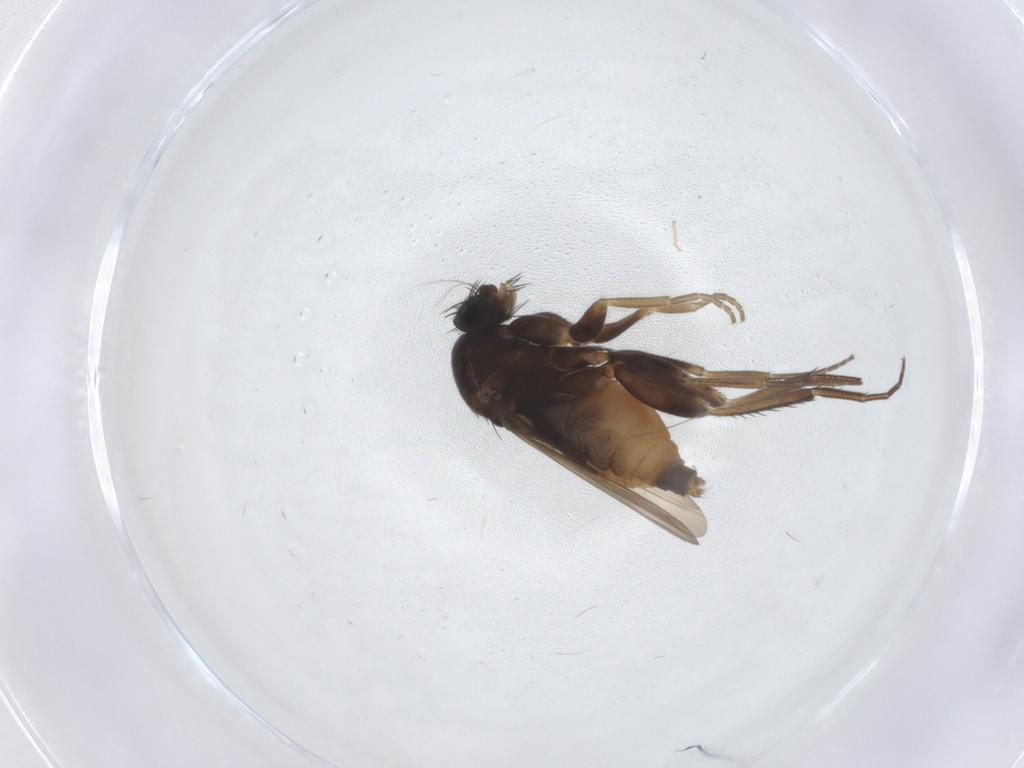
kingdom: Animalia
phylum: Arthropoda
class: Insecta
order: Diptera
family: Phoridae
